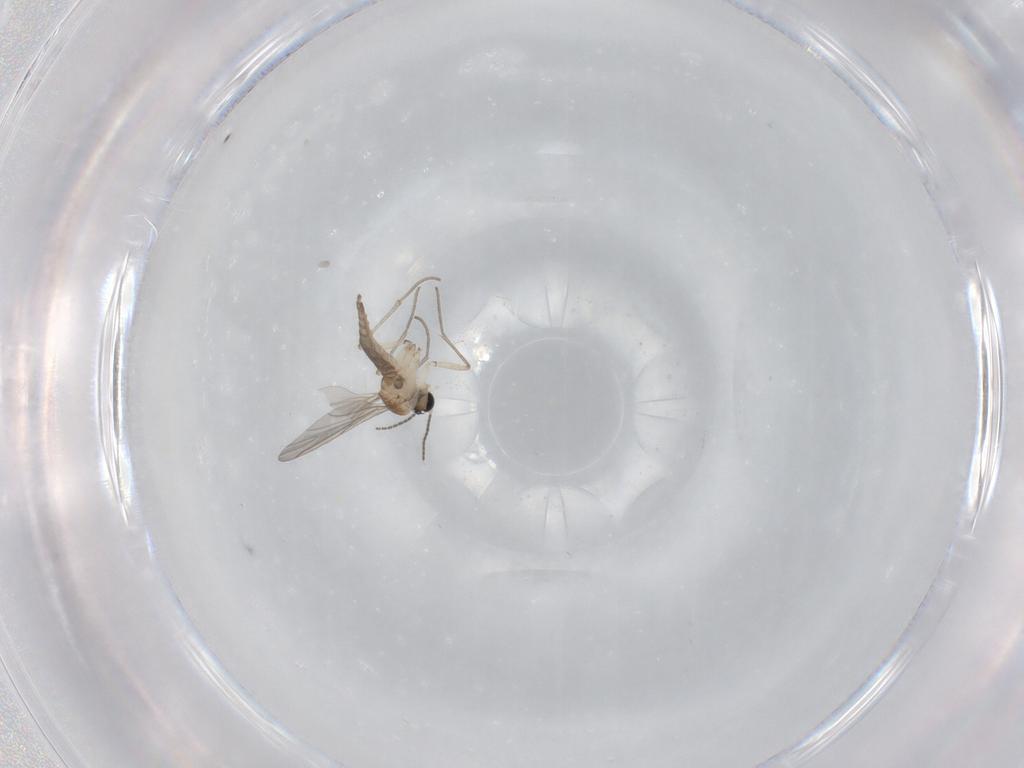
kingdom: Animalia
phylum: Arthropoda
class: Insecta
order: Diptera
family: Sciaridae
